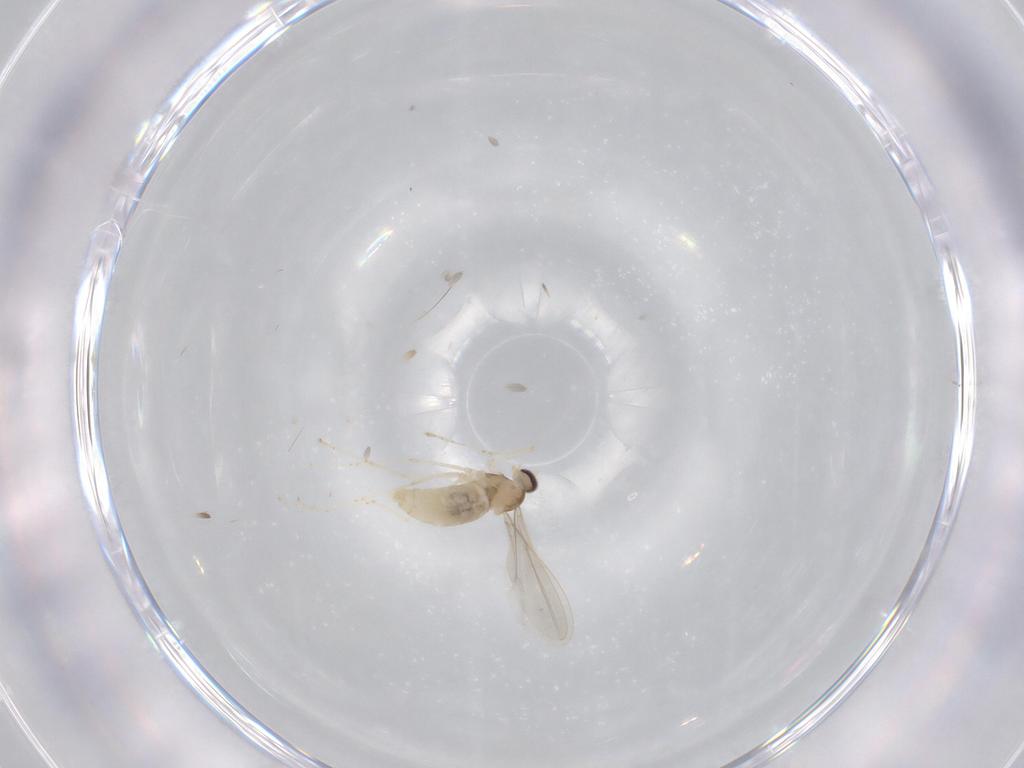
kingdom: Animalia
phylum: Arthropoda
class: Insecta
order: Diptera
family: Cecidomyiidae
